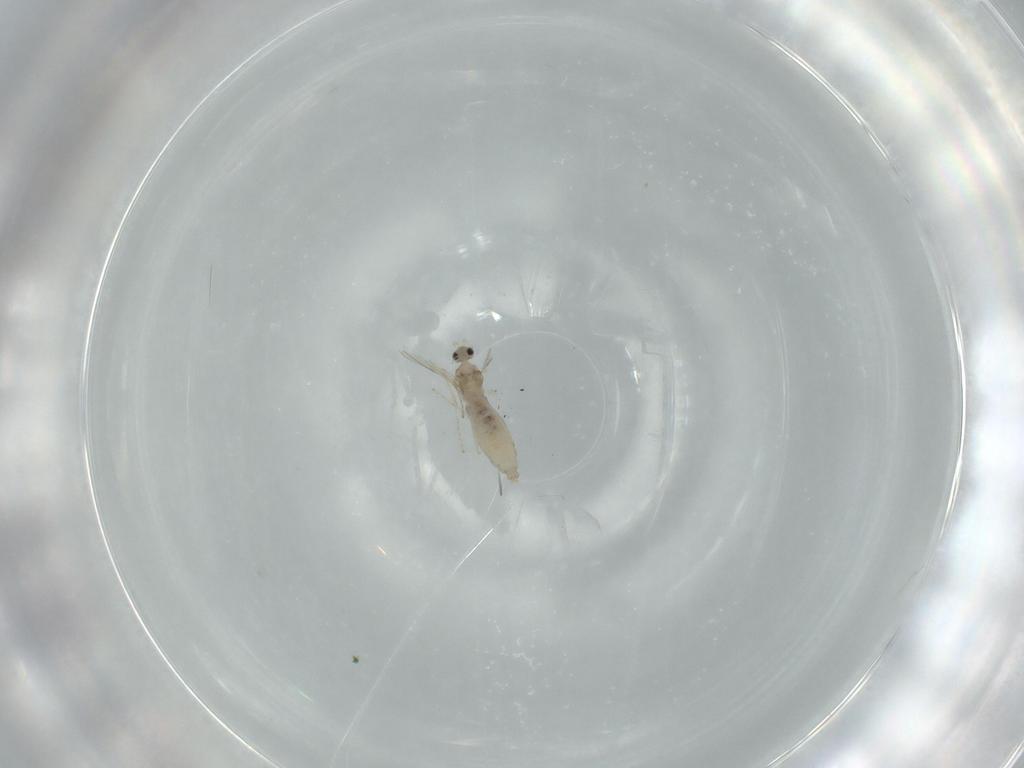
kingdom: Animalia
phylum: Arthropoda
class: Insecta
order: Diptera
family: Cecidomyiidae
